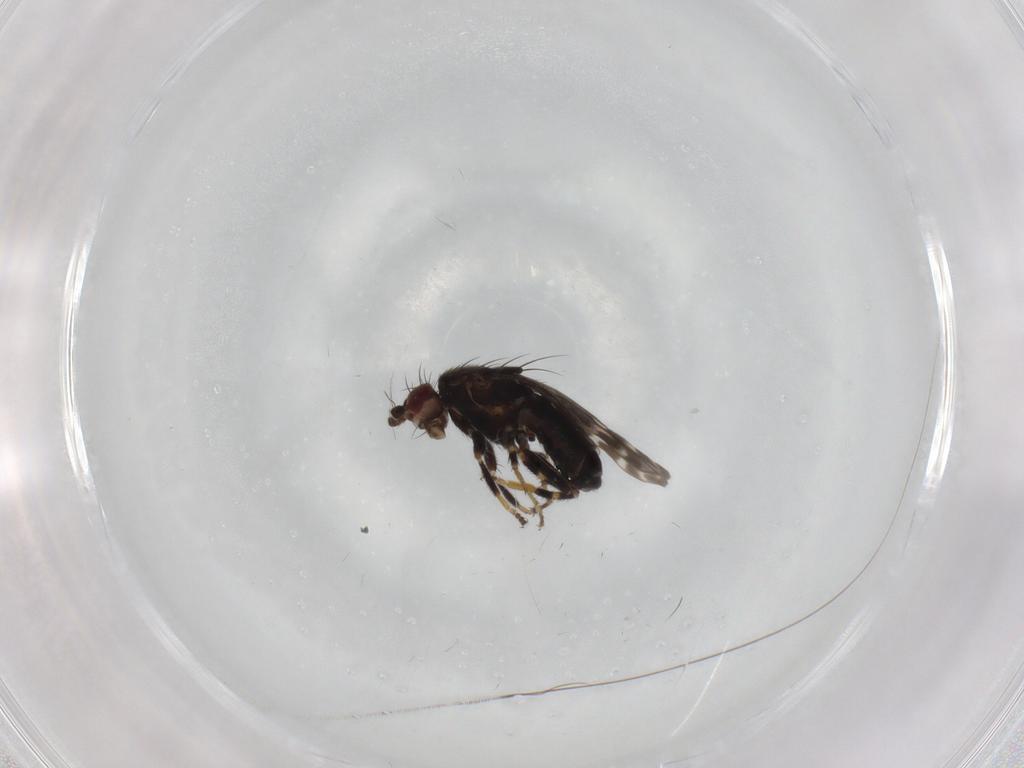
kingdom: Animalia
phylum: Arthropoda
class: Insecta
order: Diptera
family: Sphaeroceridae
